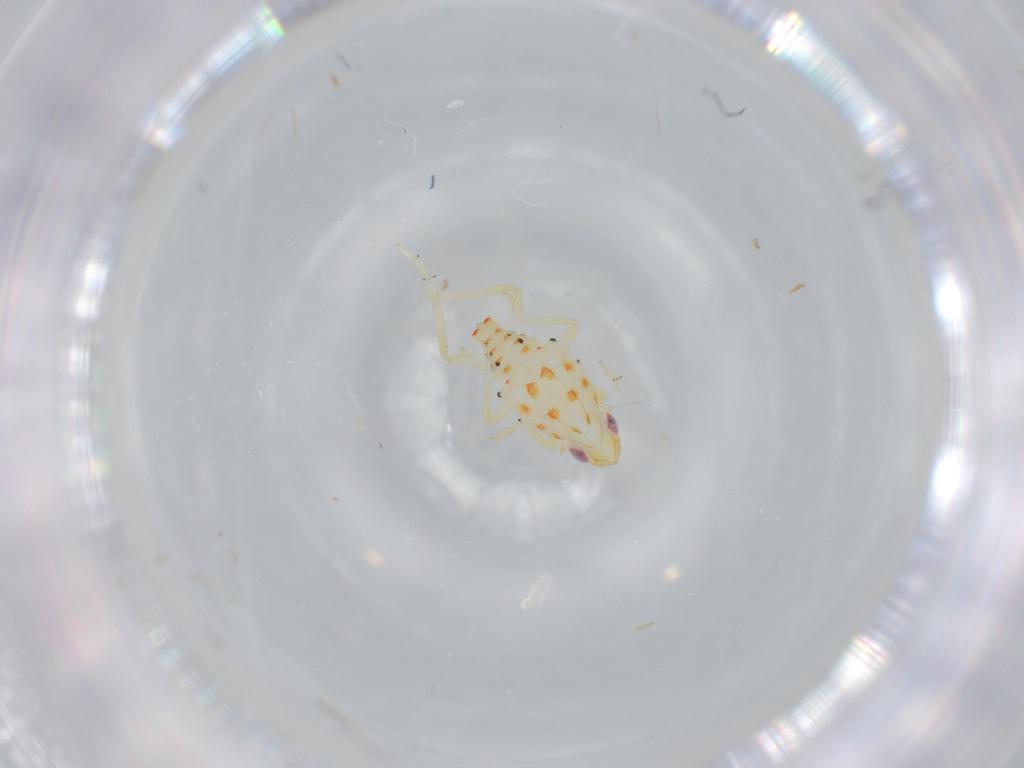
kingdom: Animalia
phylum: Arthropoda
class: Insecta
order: Hemiptera
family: Tropiduchidae
